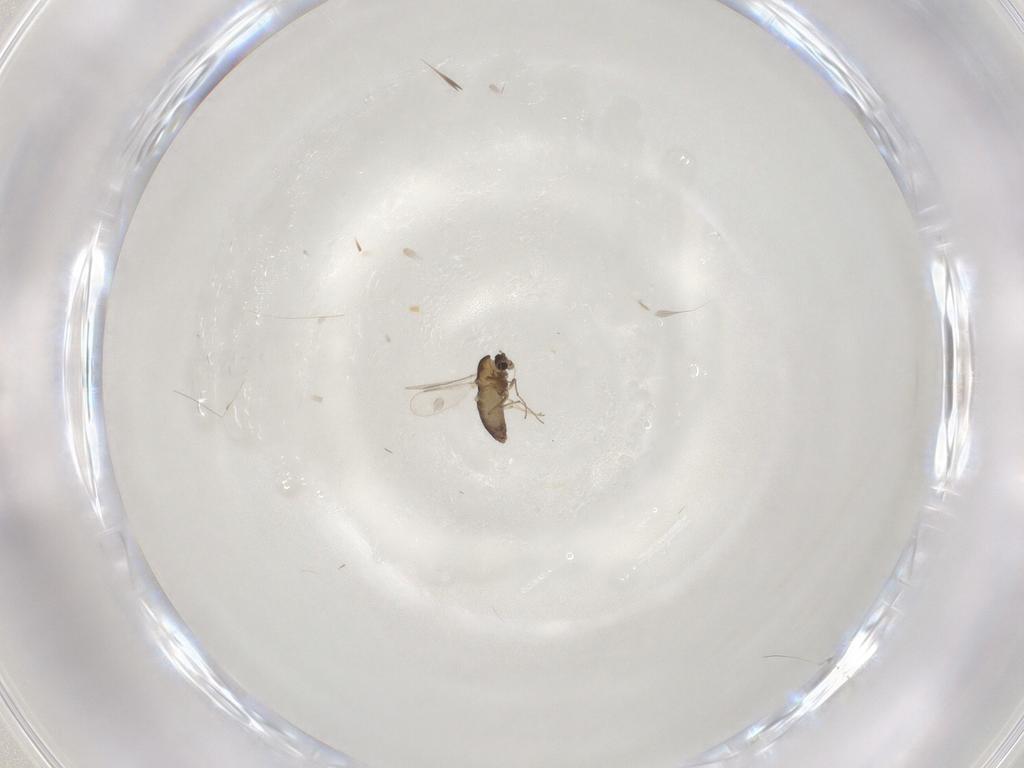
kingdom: Animalia
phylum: Arthropoda
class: Insecta
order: Diptera
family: Chironomidae
